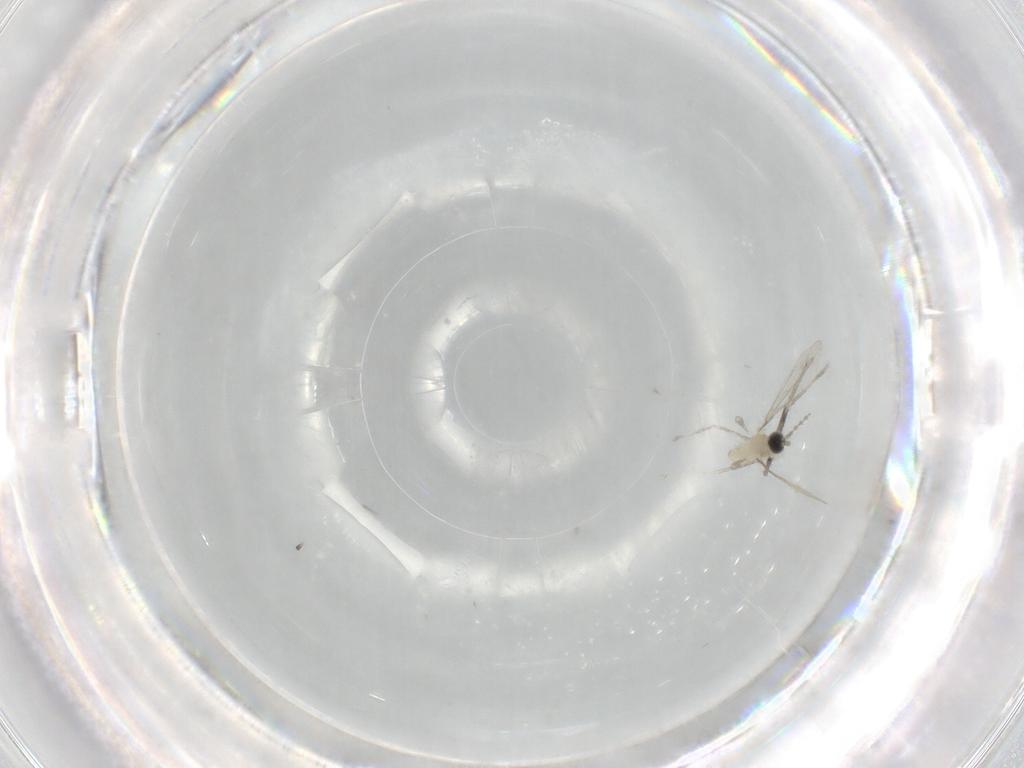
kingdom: Animalia
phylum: Arthropoda
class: Insecta
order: Diptera
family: Cecidomyiidae
